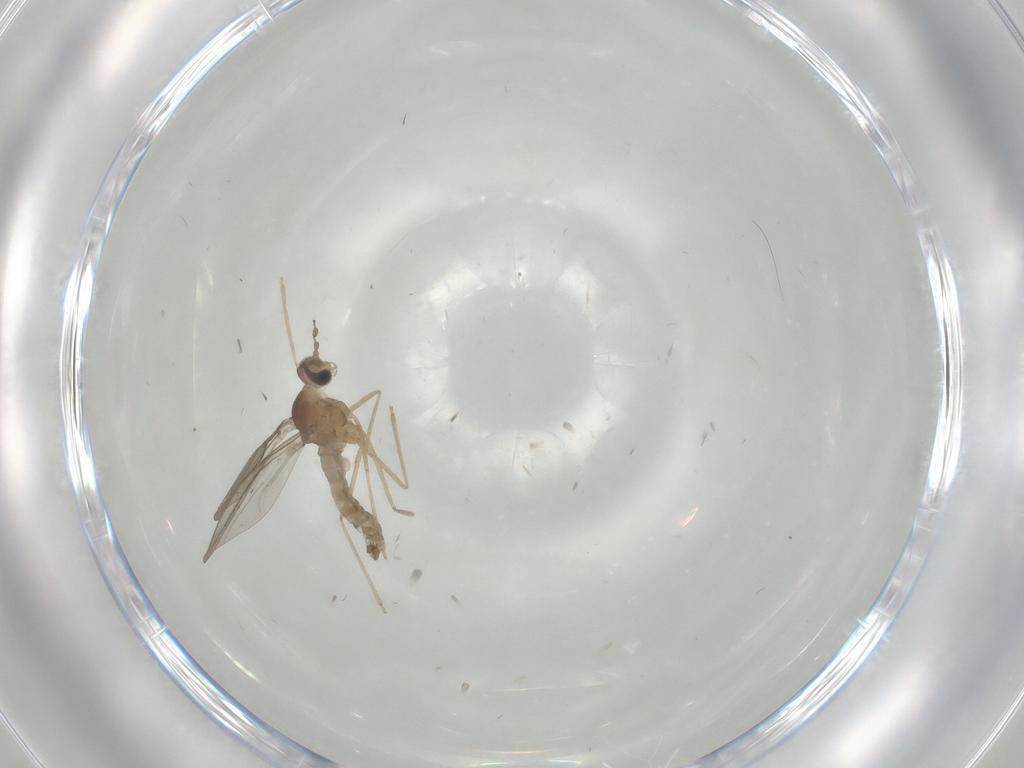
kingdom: Animalia
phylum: Arthropoda
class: Insecta
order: Diptera
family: Cecidomyiidae
